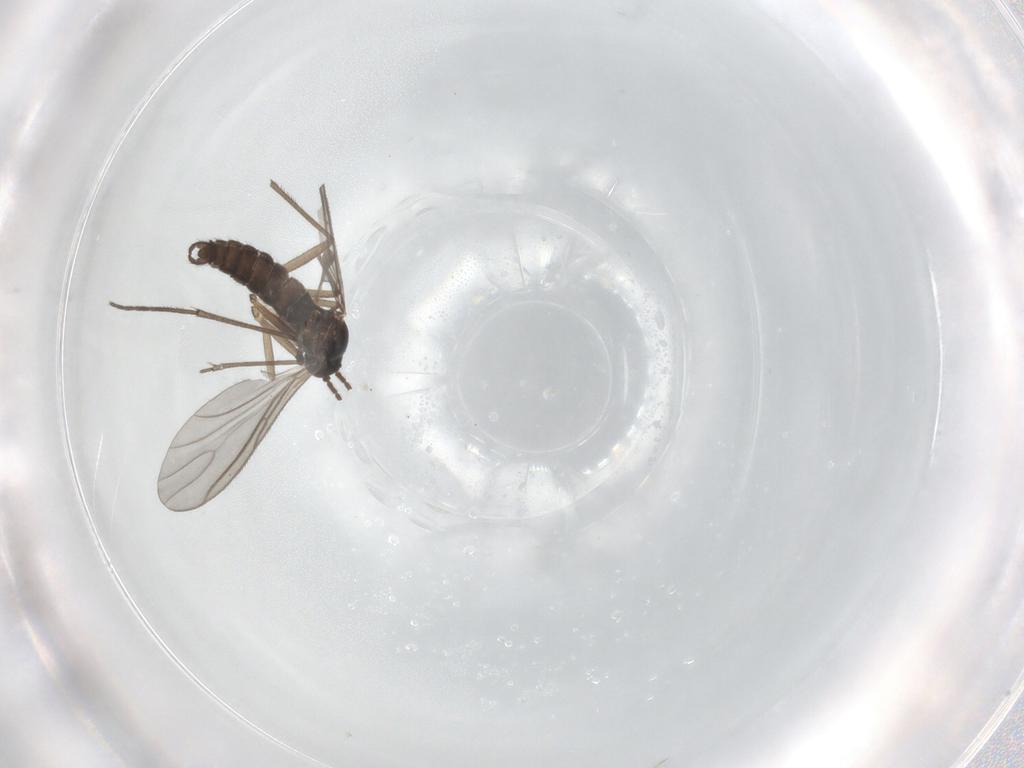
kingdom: Animalia
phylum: Arthropoda
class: Insecta
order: Diptera
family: Sciaridae
